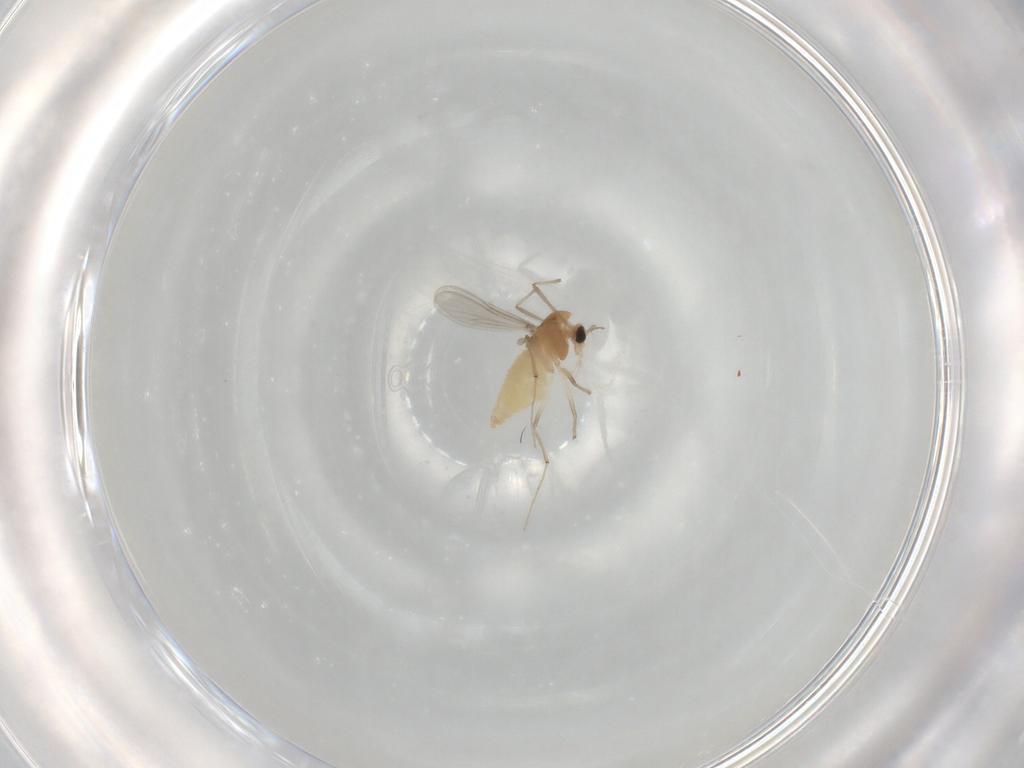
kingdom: Animalia
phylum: Arthropoda
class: Insecta
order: Diptera
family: Chironomidae
